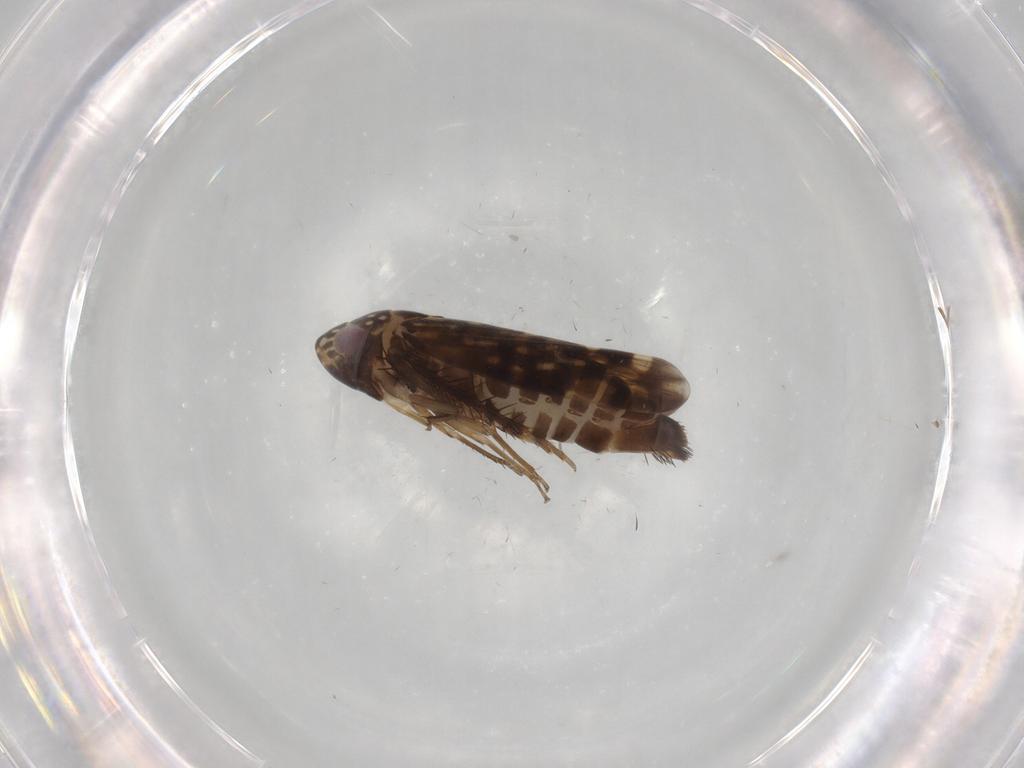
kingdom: Animalia
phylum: Arthropoda
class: Insecta
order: Hemiptera
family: Cicadellidae
